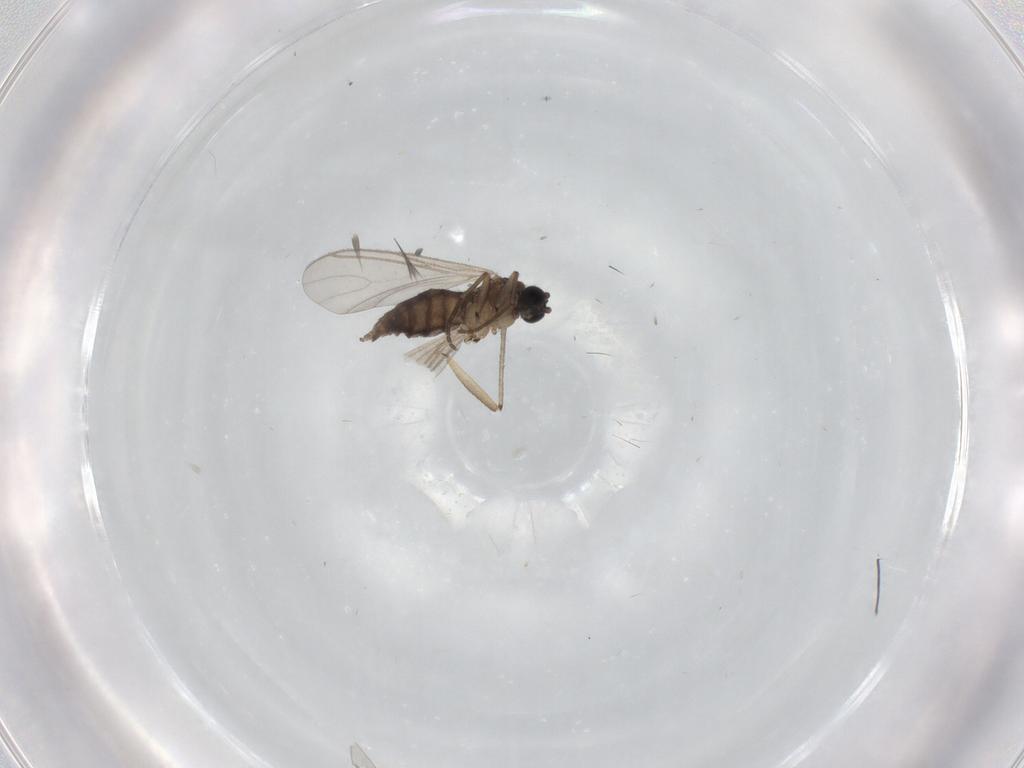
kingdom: Animalia
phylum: Arthropoda
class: Insecta
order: Diptera
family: Sciaridae
